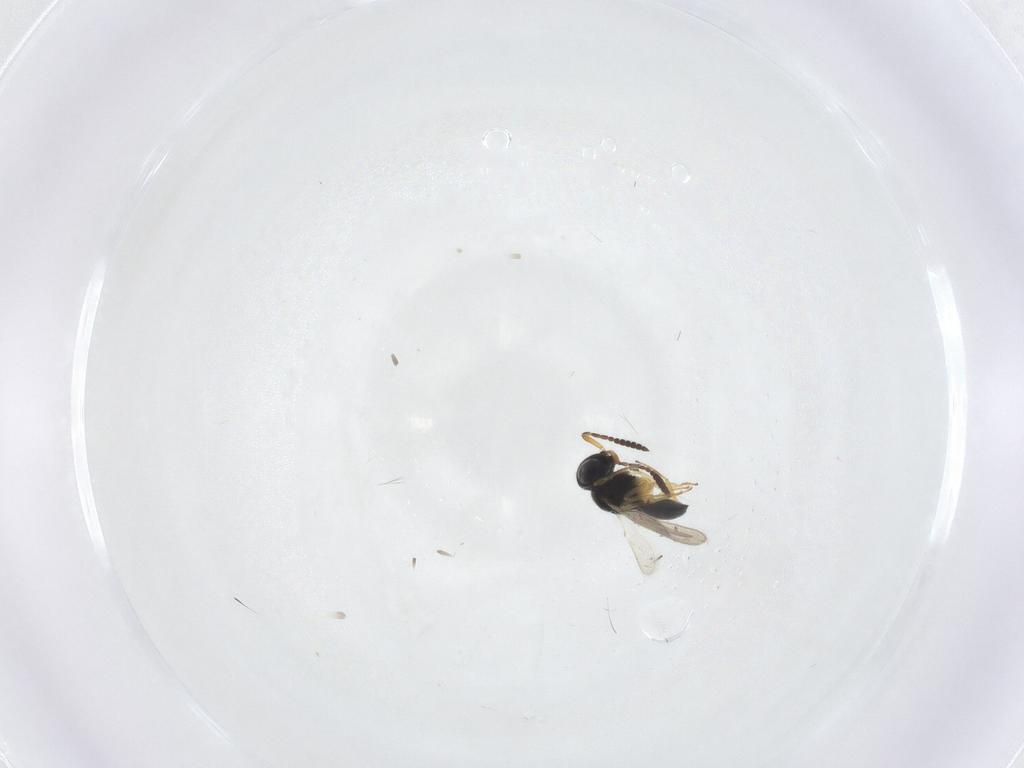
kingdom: Animalia
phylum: Arthropoda
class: Insecta
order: Hymenoptera
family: Scelionidae
